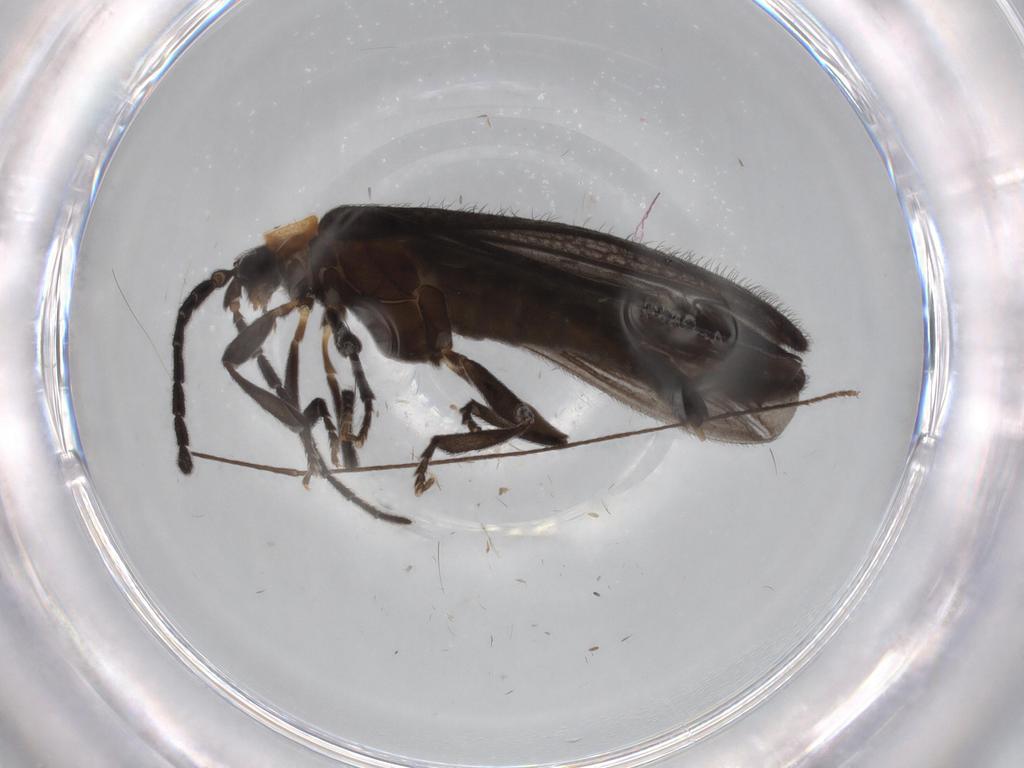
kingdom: Animalia
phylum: Arthropoda
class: Insecta
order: Coleoptera
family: Lycidae
